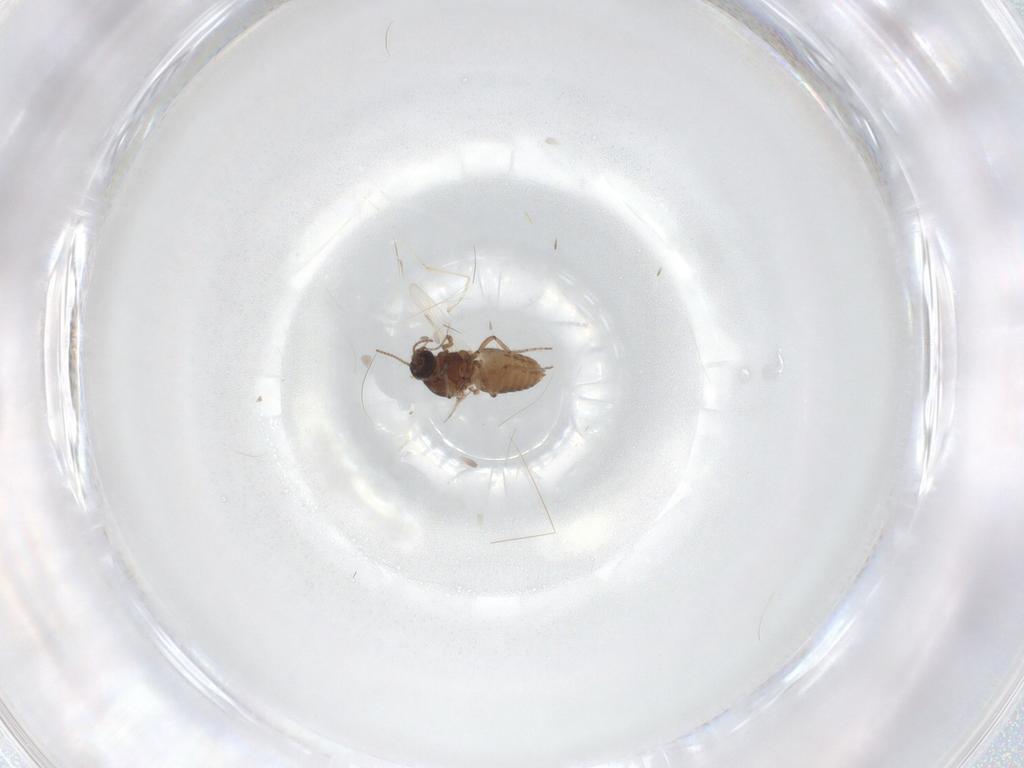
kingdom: Animalia
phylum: Arthropoda
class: Insecta
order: Diptera
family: Ceratopogonidae
